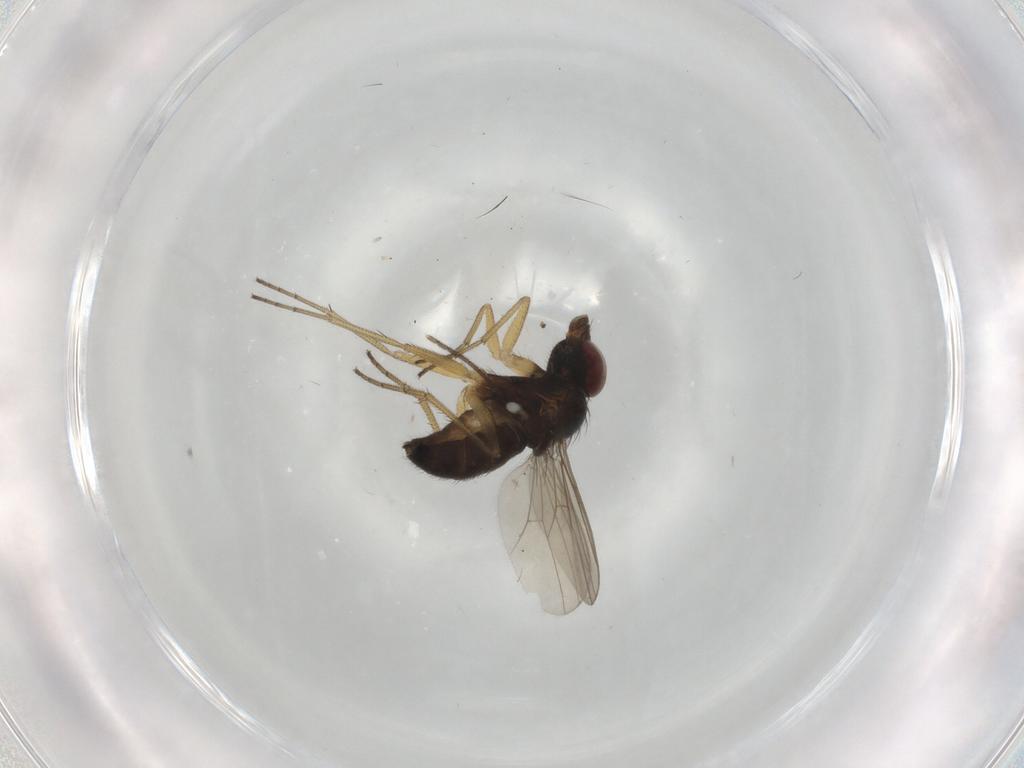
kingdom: Animalia
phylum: Arthropoda
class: Insecta
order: Diptera
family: Dolichopodidae
